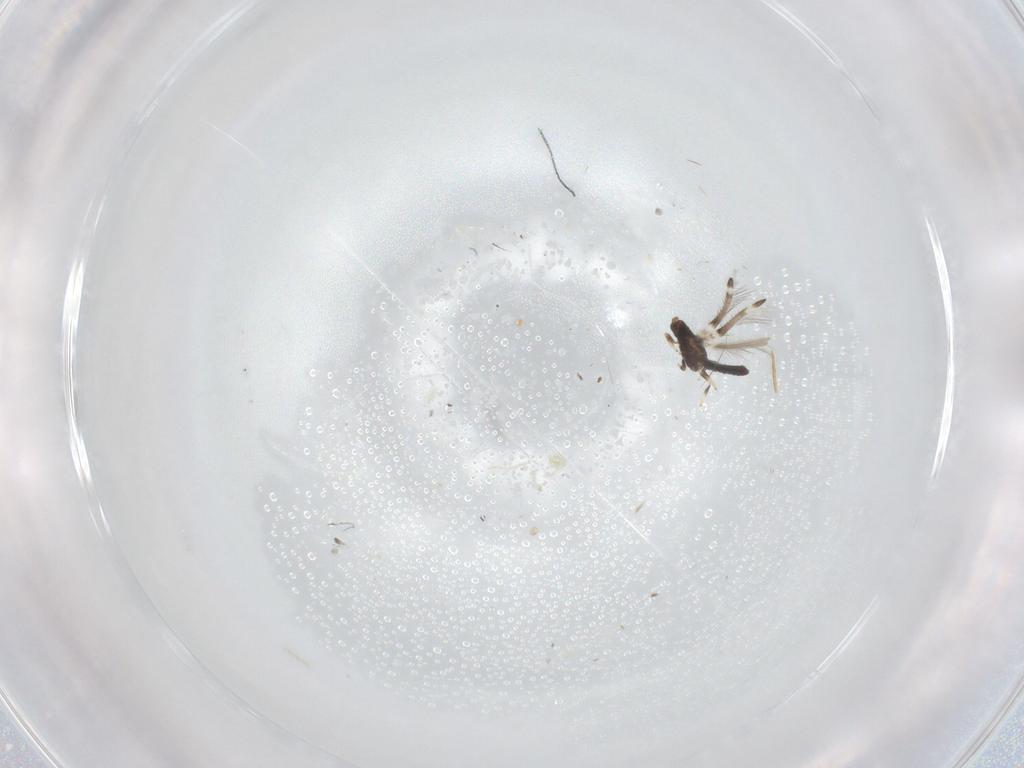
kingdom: Animalia
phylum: Arthropoda
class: Insecta
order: Thysanoptera
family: Thripidae
